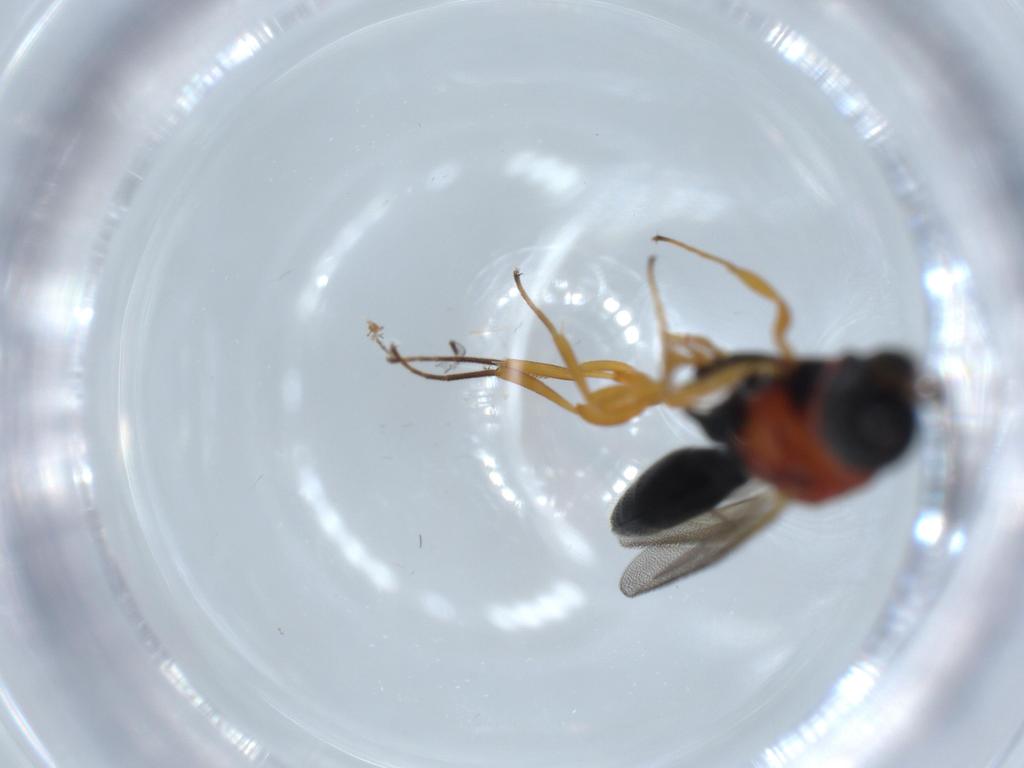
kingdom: Animalia
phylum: Arthropoda
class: Insecta
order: Hymenoptera
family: Scelionidae
